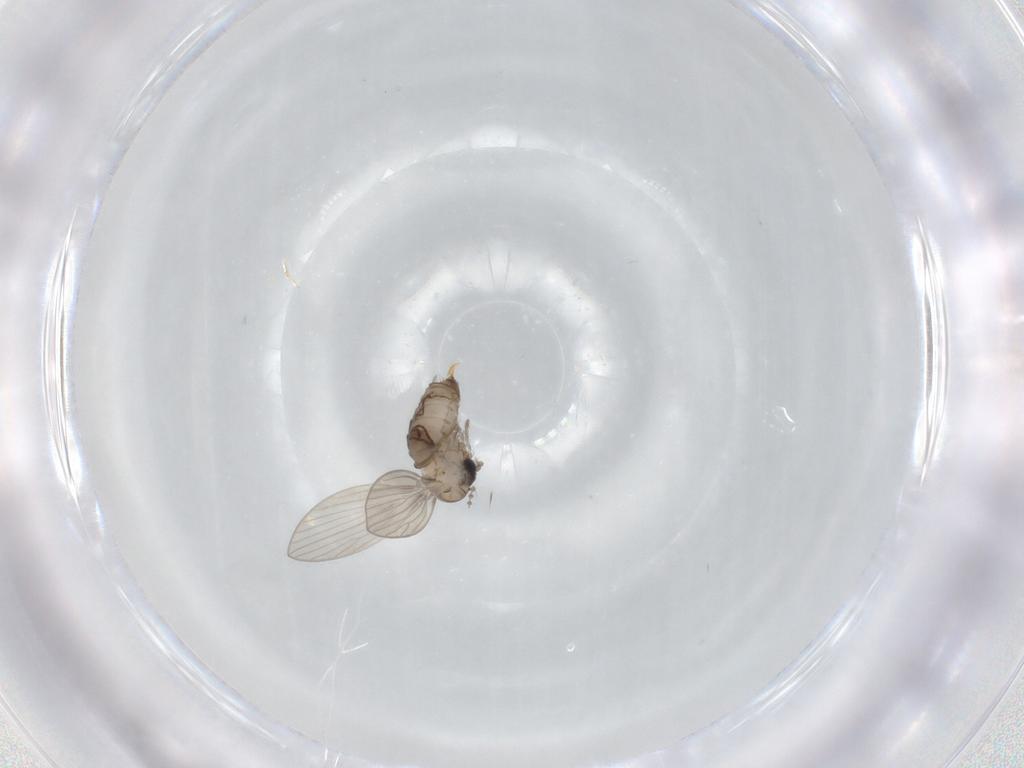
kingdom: Animalia
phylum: Arthropoda
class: Insecta
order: Diptera
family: Psychodidae
